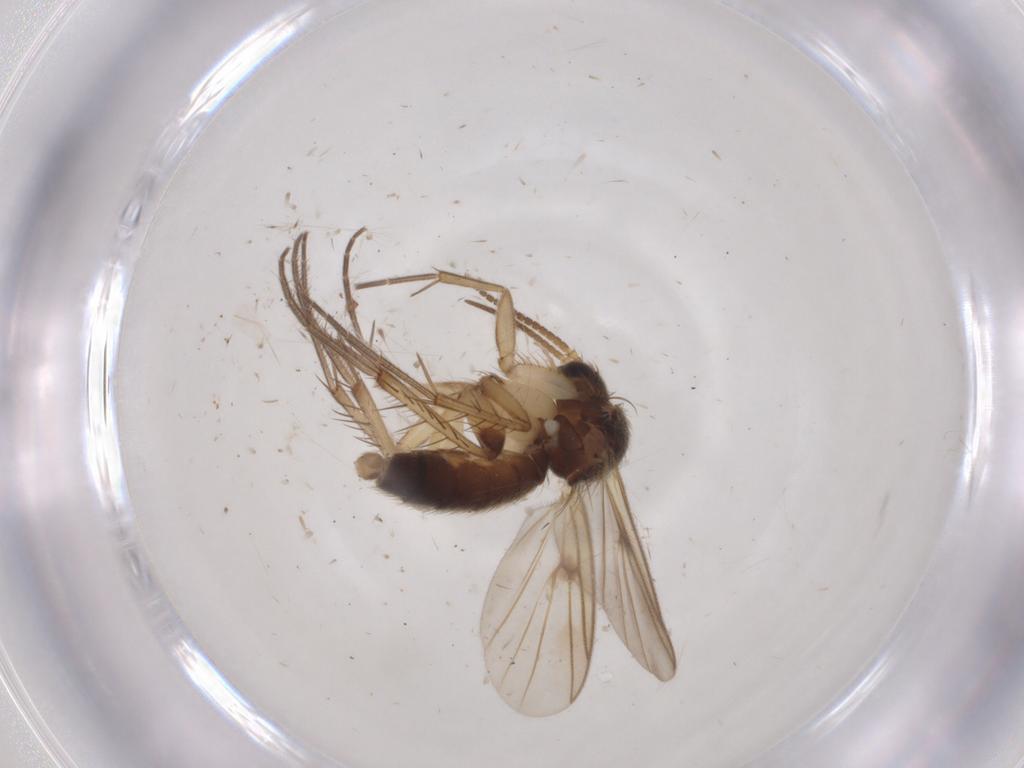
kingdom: Animalia
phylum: Arthropoda
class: Insecta
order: Diptera
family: Mycetophilidae
